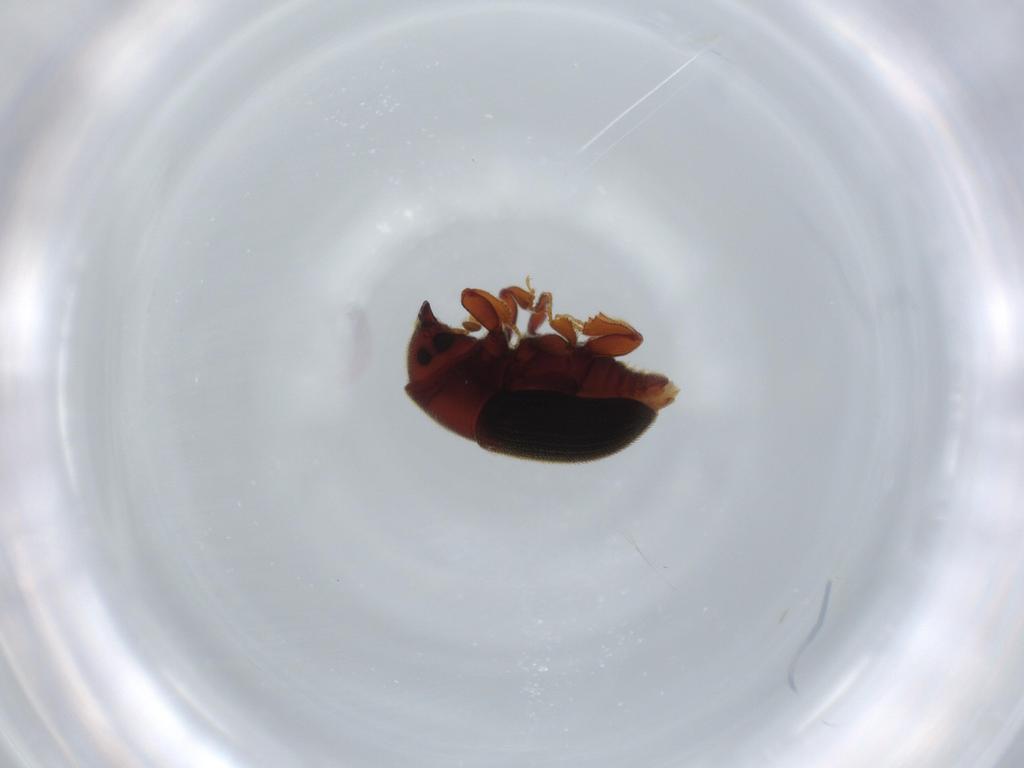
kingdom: Animalia
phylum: Arthropoda
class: Insecta
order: Coleoptera
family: Curculionidae
